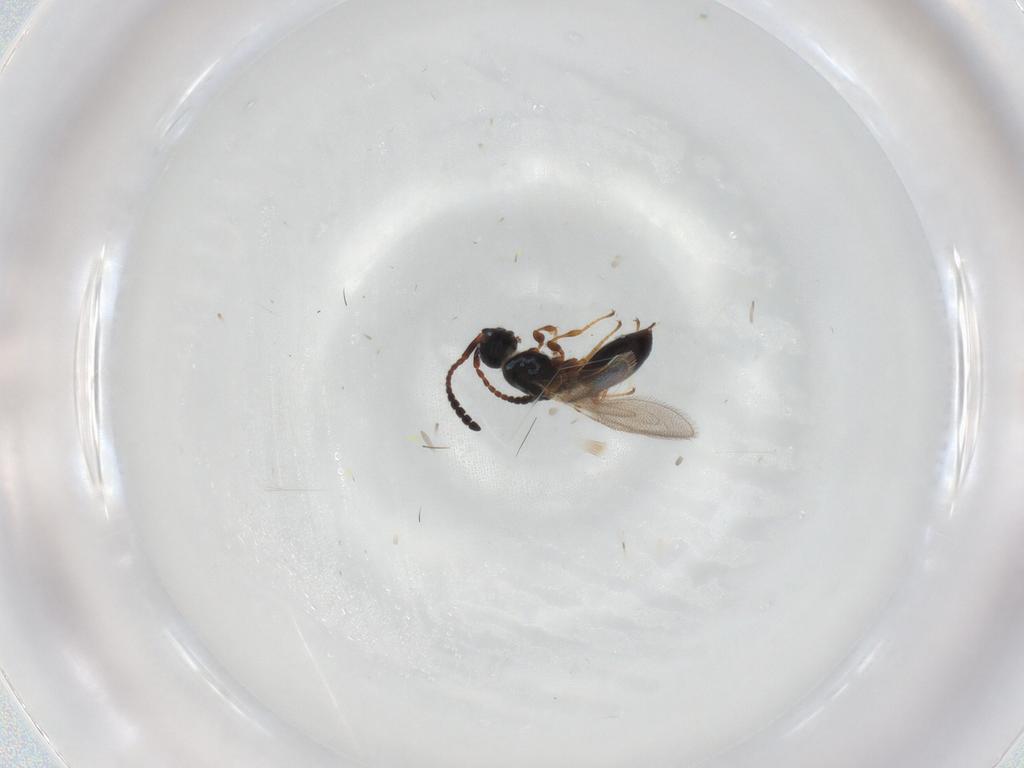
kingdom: Animalia
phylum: Arthropoda
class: Insecta
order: Hymenoptera
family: Diapriidae
